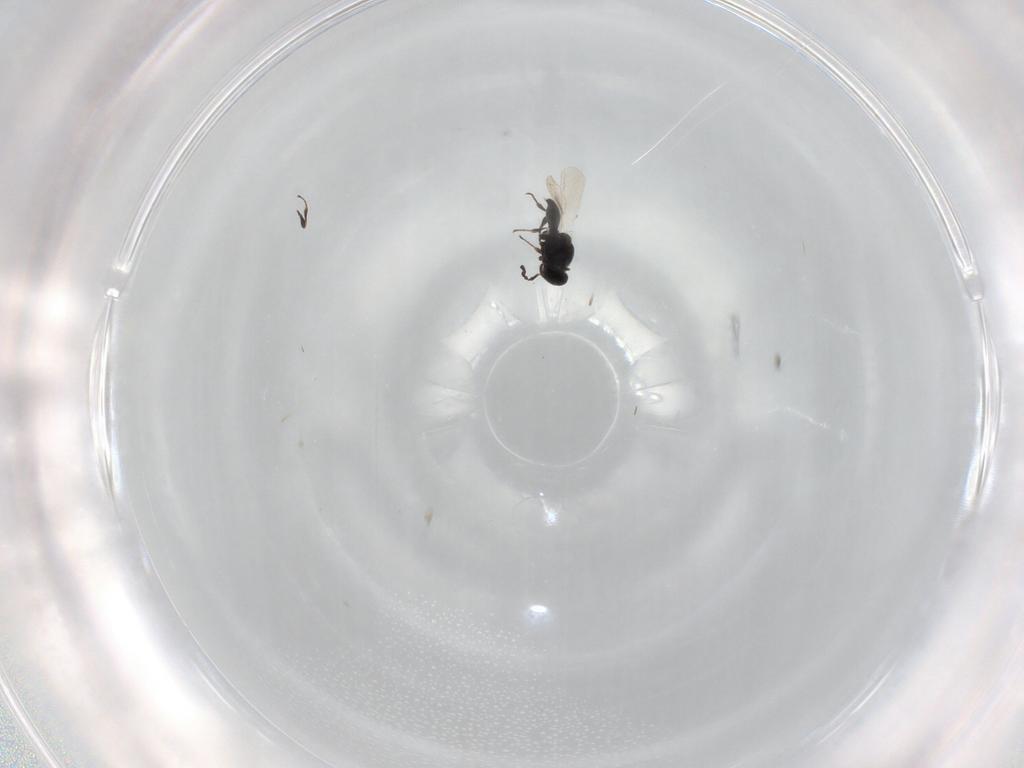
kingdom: Animalia
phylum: Arthropoda
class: Insecta
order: Hymenoptera
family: Platygastridae
